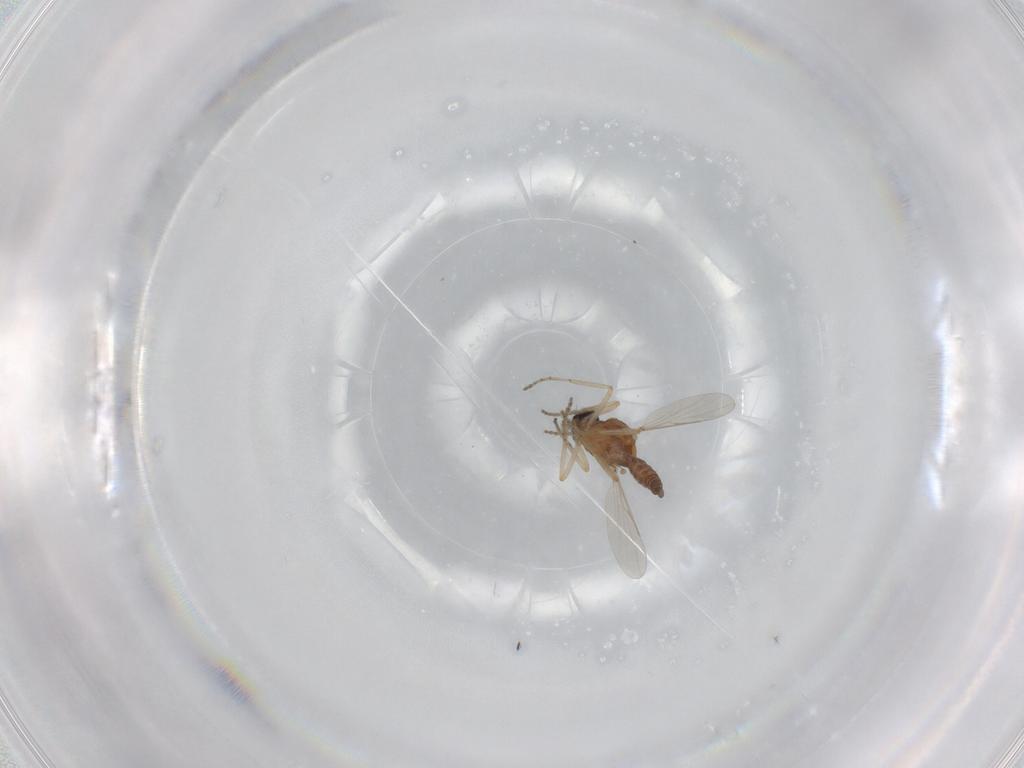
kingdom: Animalia
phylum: Arthropoda
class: Insecta
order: Diptera
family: Ceratopogonidae
